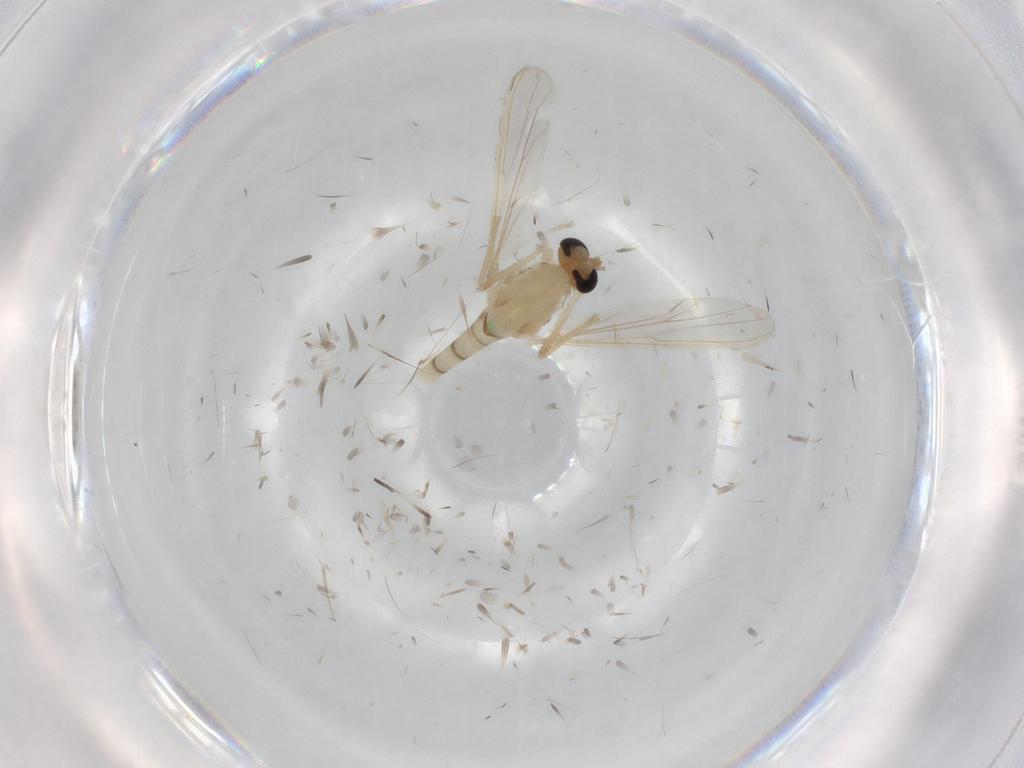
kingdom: Animalia
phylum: Arthropoda
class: Insecta
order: Diptera
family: Chironomidae
